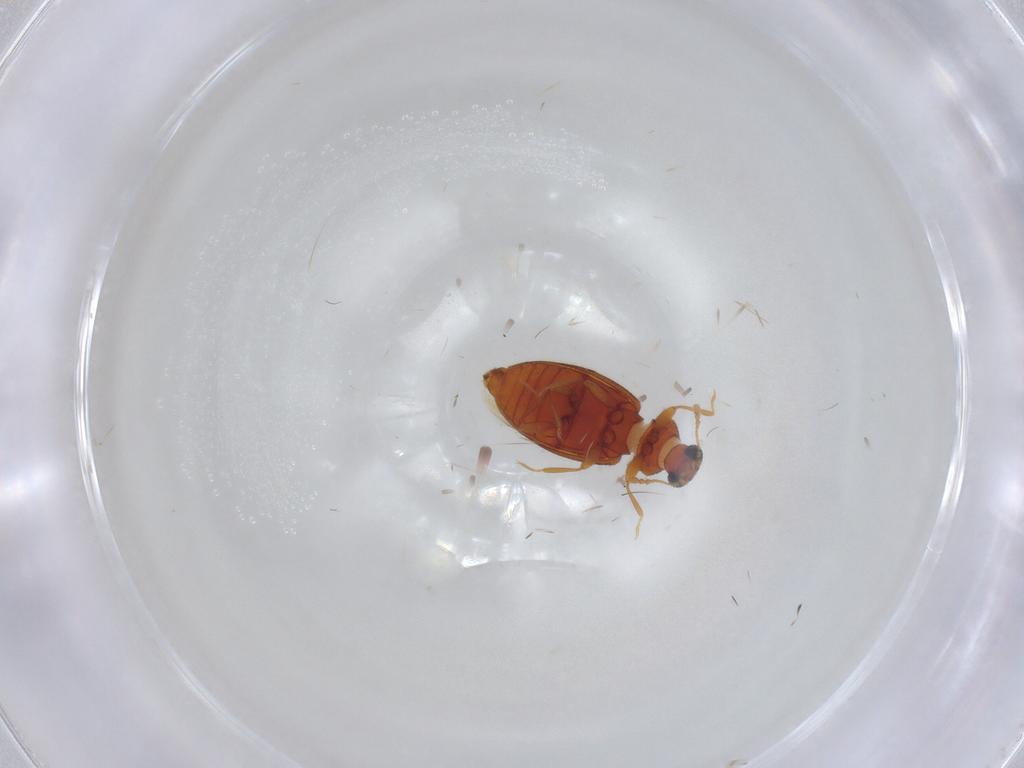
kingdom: Animalia
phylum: Arthropoda
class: Insecta
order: Coleoptera
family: Latridiidae
